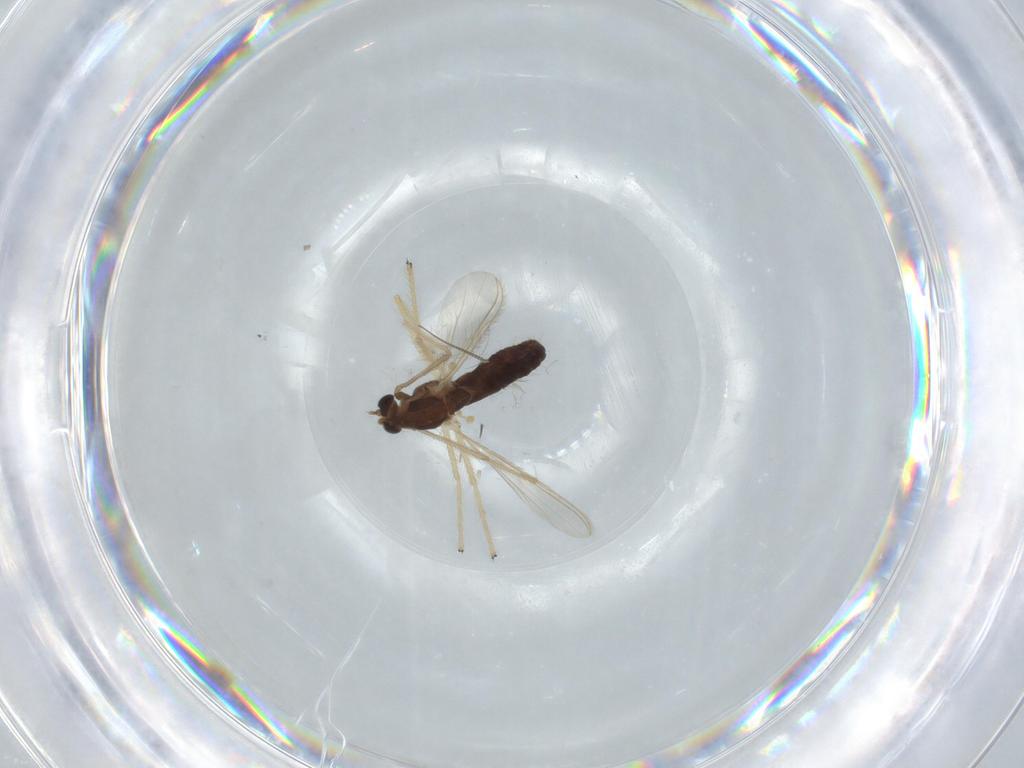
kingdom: Animalia
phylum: Arthropoda
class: Insecta
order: Diptera
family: Chironomidae
